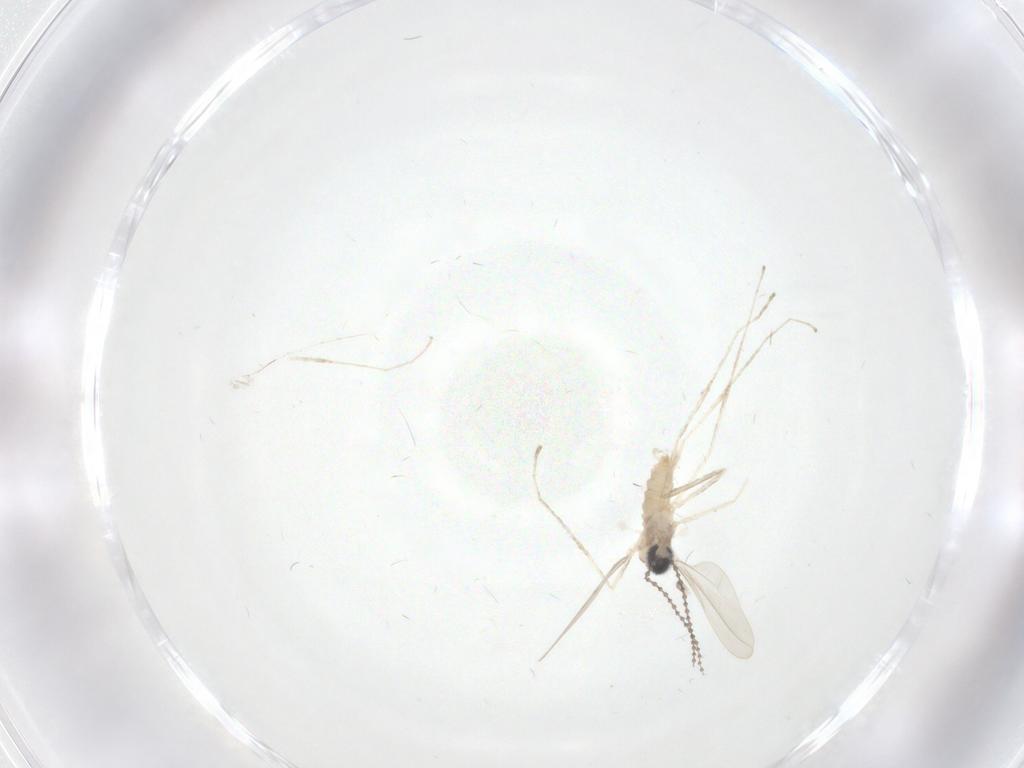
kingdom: Animalia
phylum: Arthropoda
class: Insecta
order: Diptera
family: Cecidomyiidae
